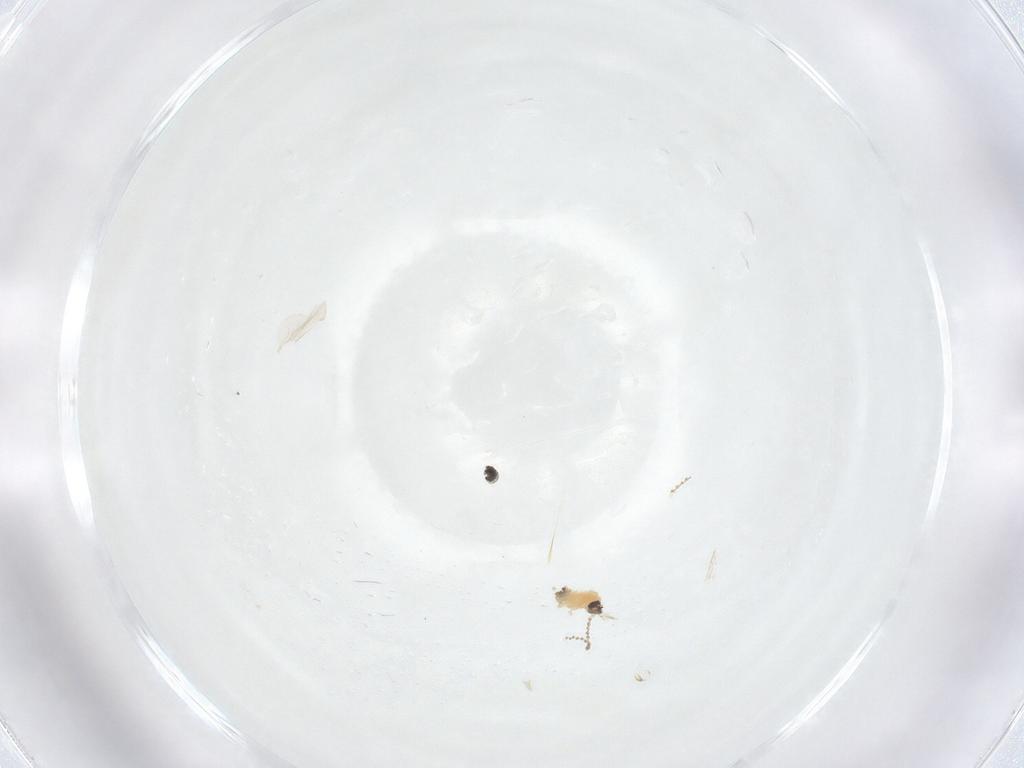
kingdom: Animalia
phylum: Arthropoda
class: Insecta
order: Diptera
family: Cecidomyiidae
